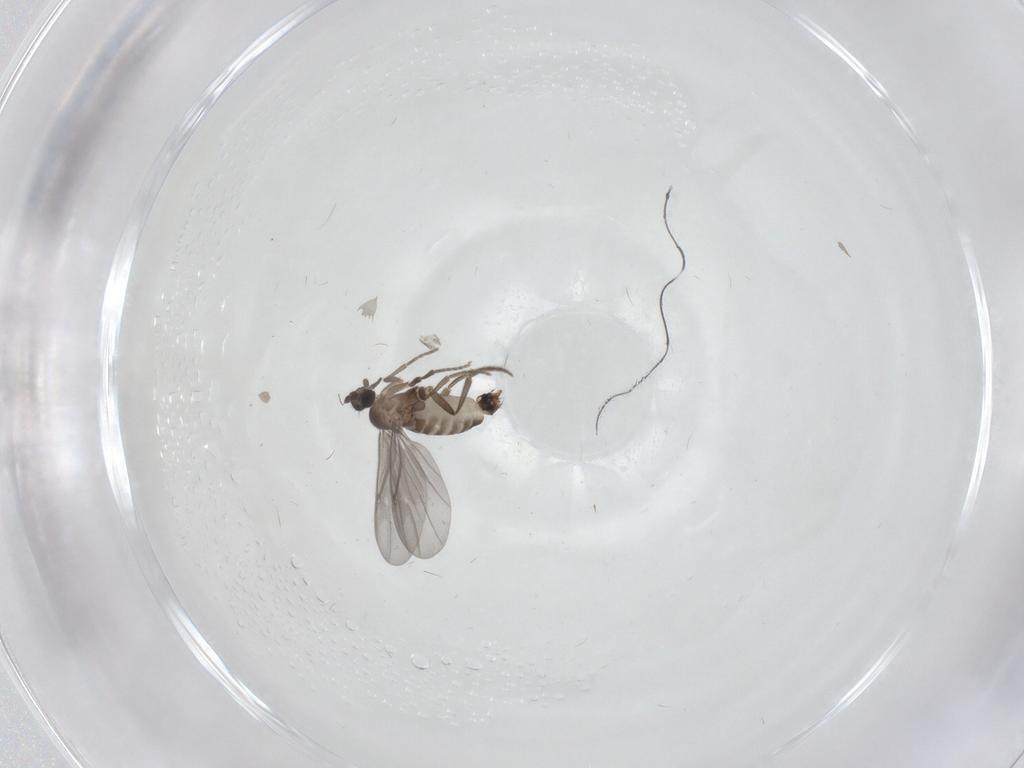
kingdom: Animalia
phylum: Arthropoda
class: Insecta
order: Diptera
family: Phoridae
